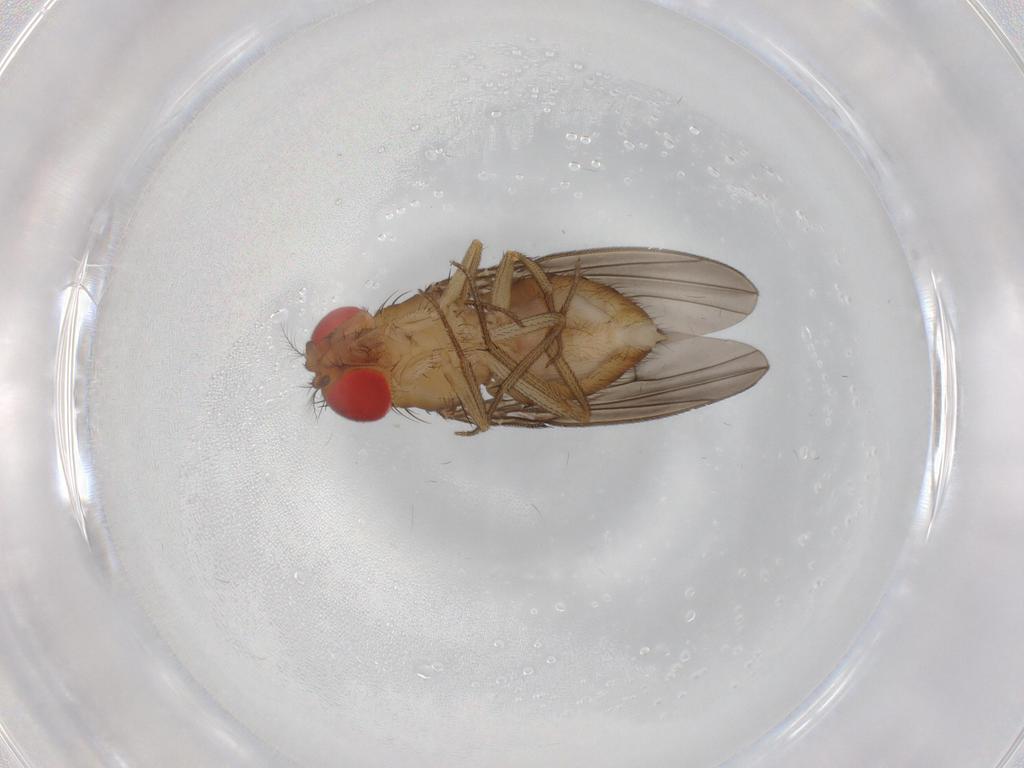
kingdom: Animalia
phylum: Arthropoda
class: Insecta
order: Diptera
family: Drosophilidae
